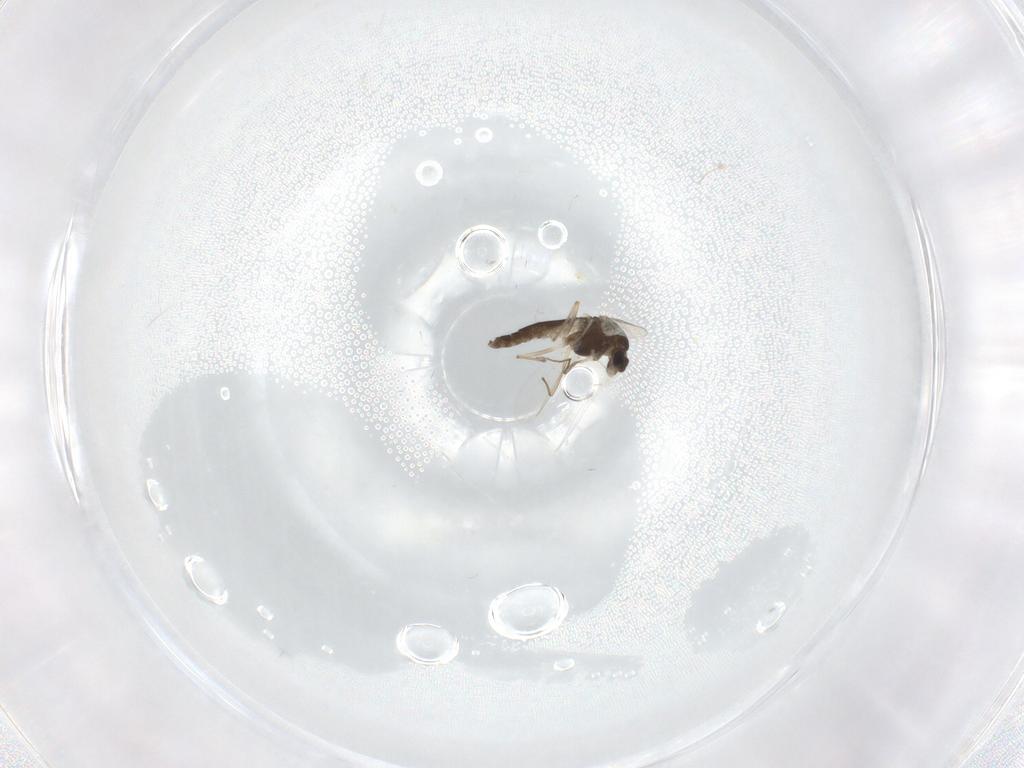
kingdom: Animalia
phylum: Arthropoda
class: Insecta
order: Diptera
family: Chironomidae
